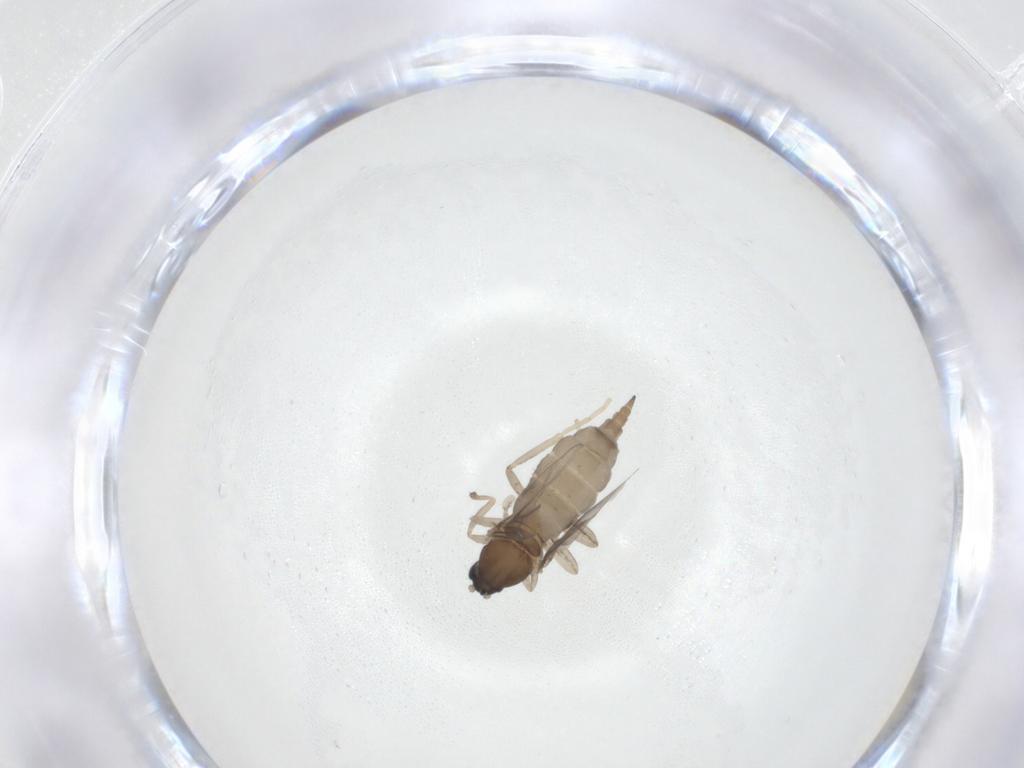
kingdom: Animalia
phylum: Arthropoda
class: Insecta
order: Diptera
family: Cecidomyiidae
